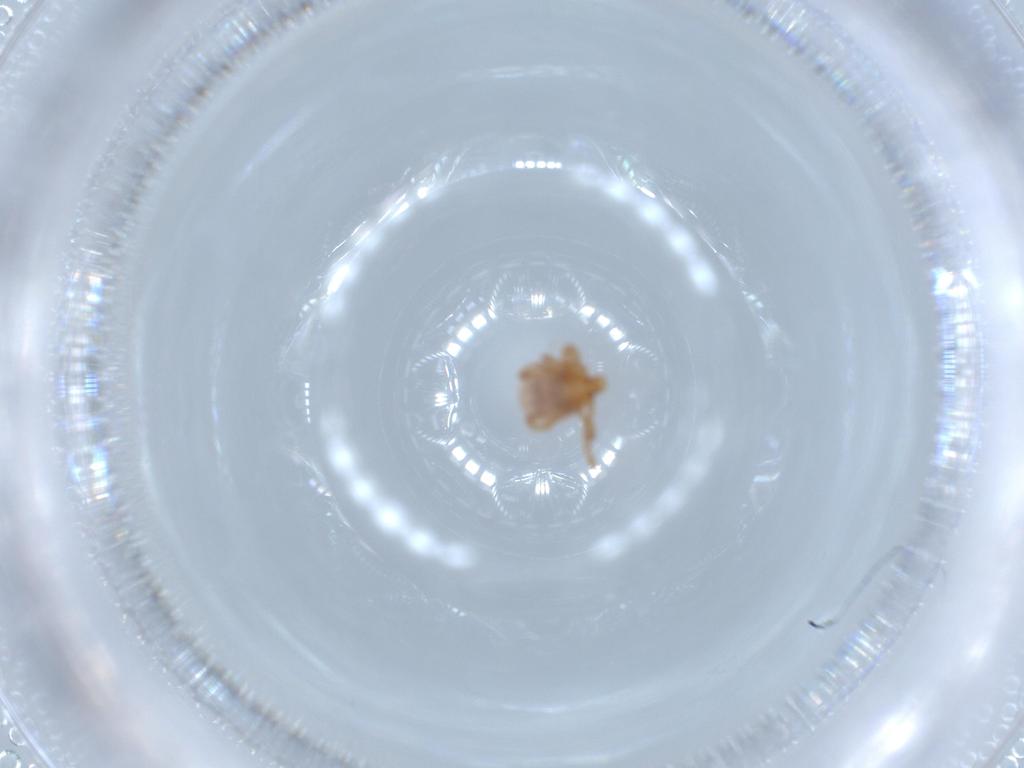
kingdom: Animalia
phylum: Arthropoda
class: Arachnida
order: Ixodida
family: Ixodidae
